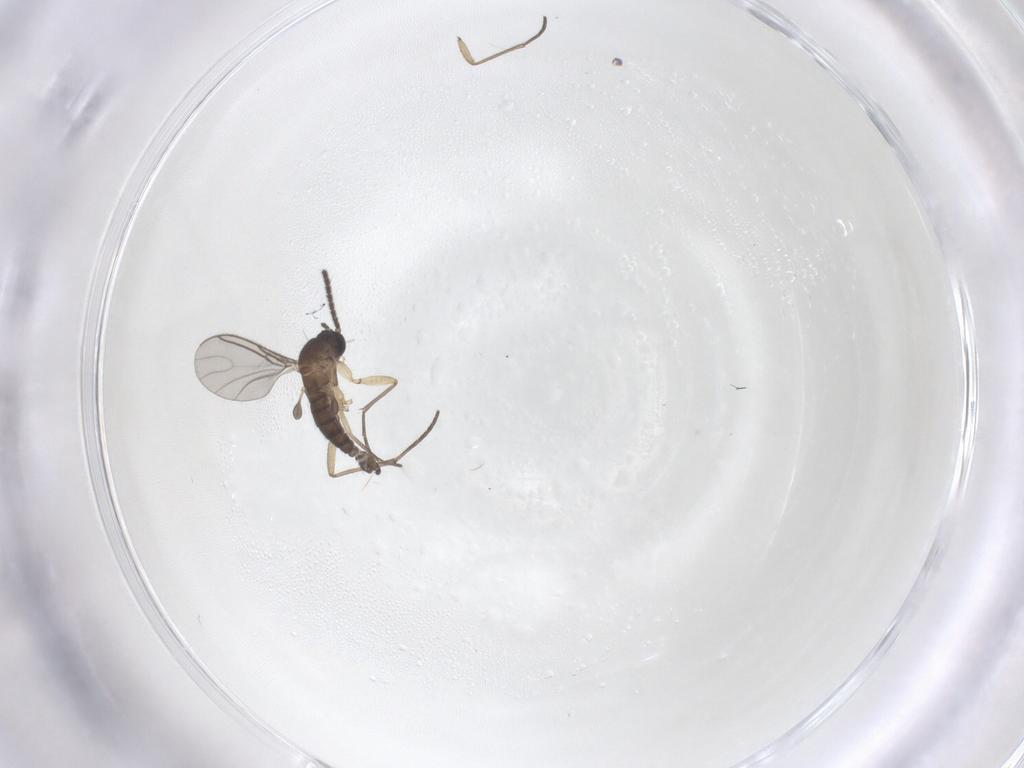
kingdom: Animalia
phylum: Arthropoda
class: Insecta
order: Diptera
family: Sciaridae
